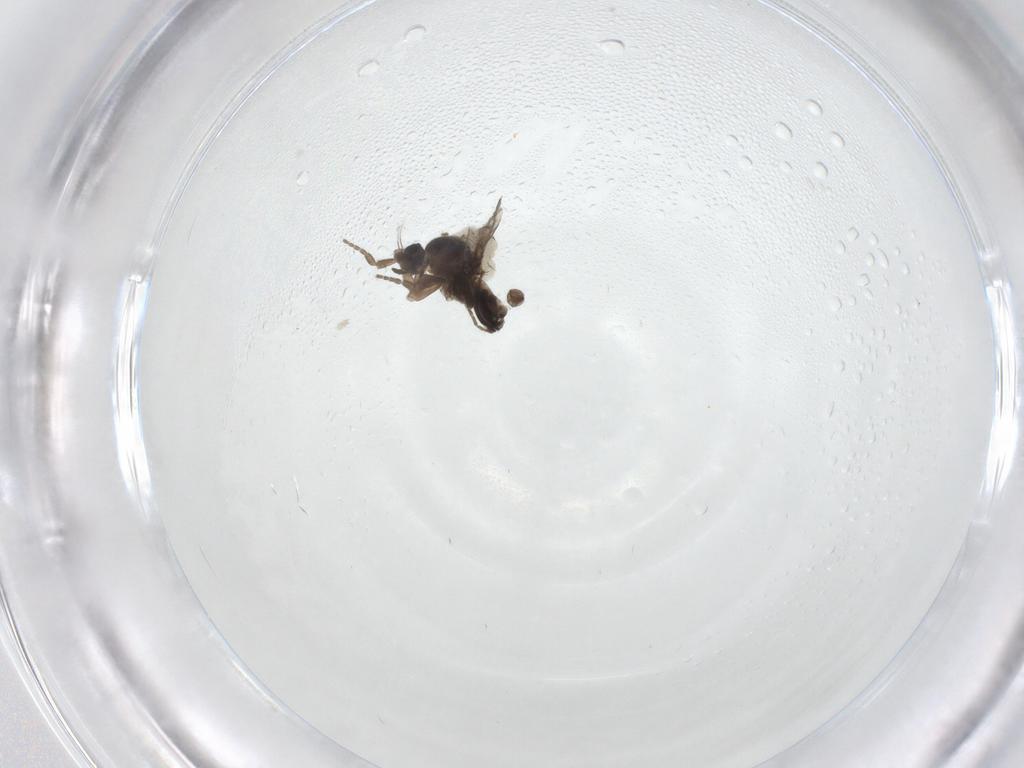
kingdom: Animalia
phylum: Arthropoda
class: Insecta
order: Diptera
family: Psychodidae
